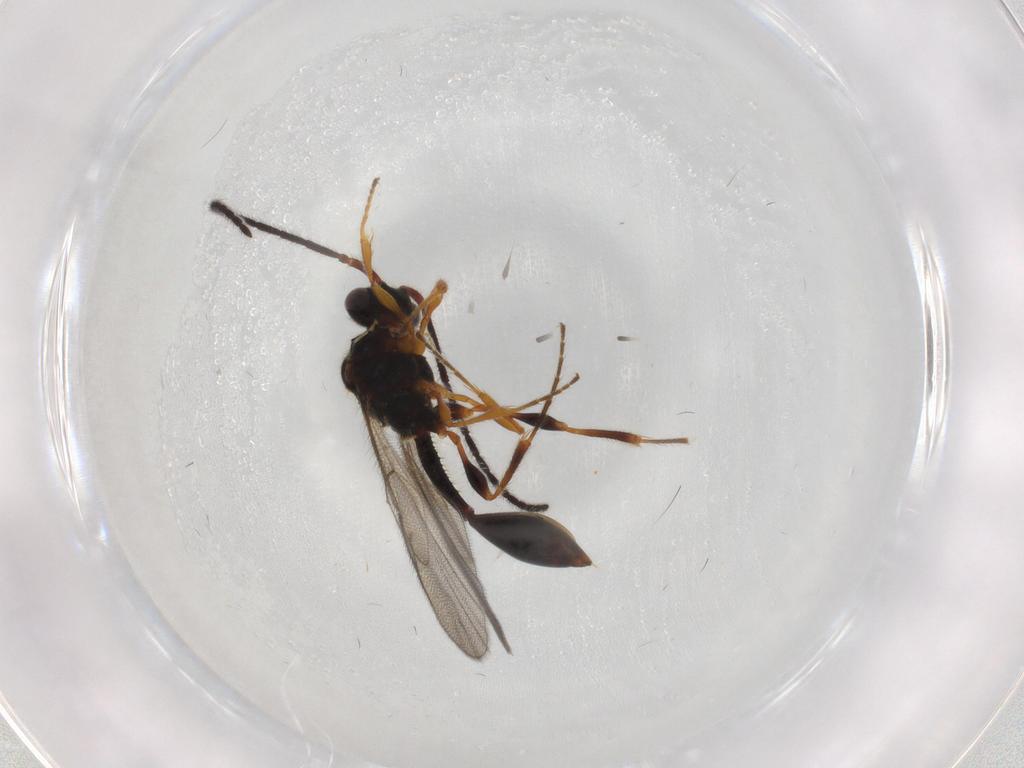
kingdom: Animalia
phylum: Arthropoda
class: Insecta
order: Hymenoptera
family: Diapriidae
